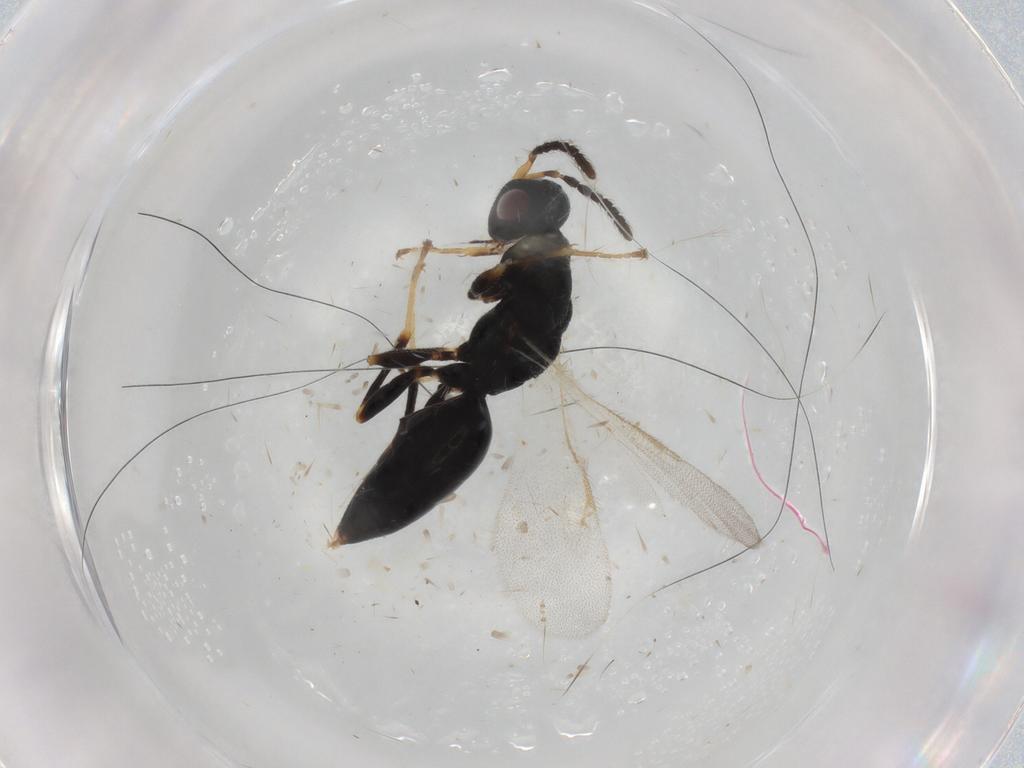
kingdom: Animalia
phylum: Arthropoda
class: Insecta
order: Hymenoptera
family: Eurytomidae
